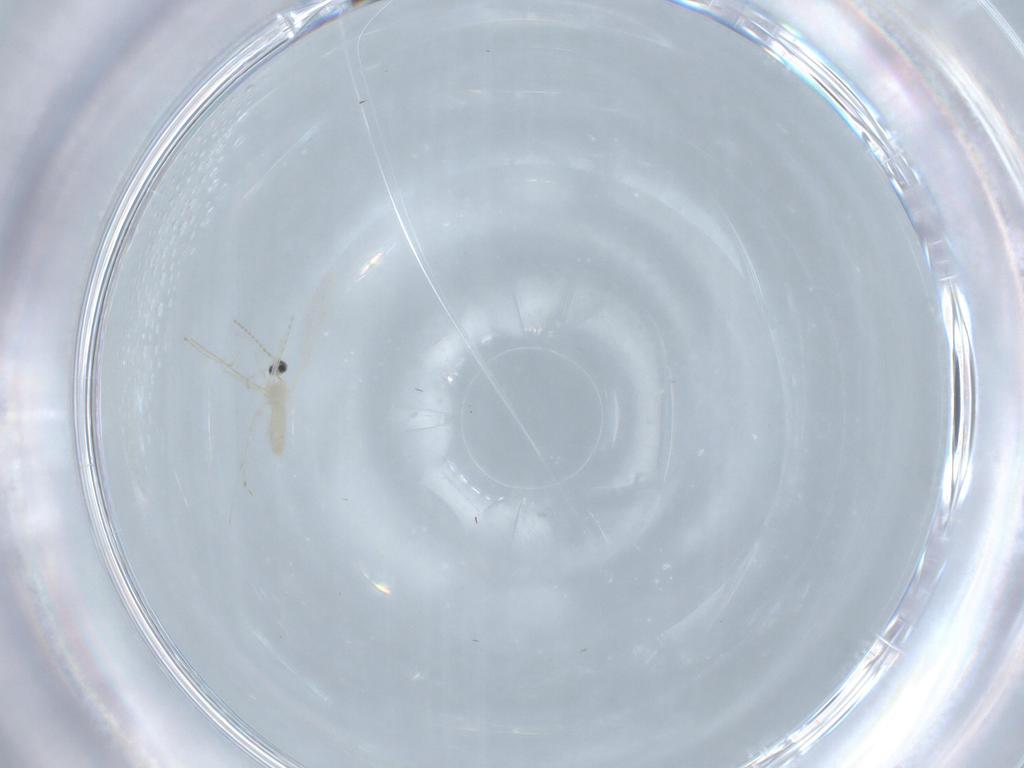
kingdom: Animalia
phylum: Arthropoda
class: Insecta
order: Diptera
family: Cecidomyiidae
